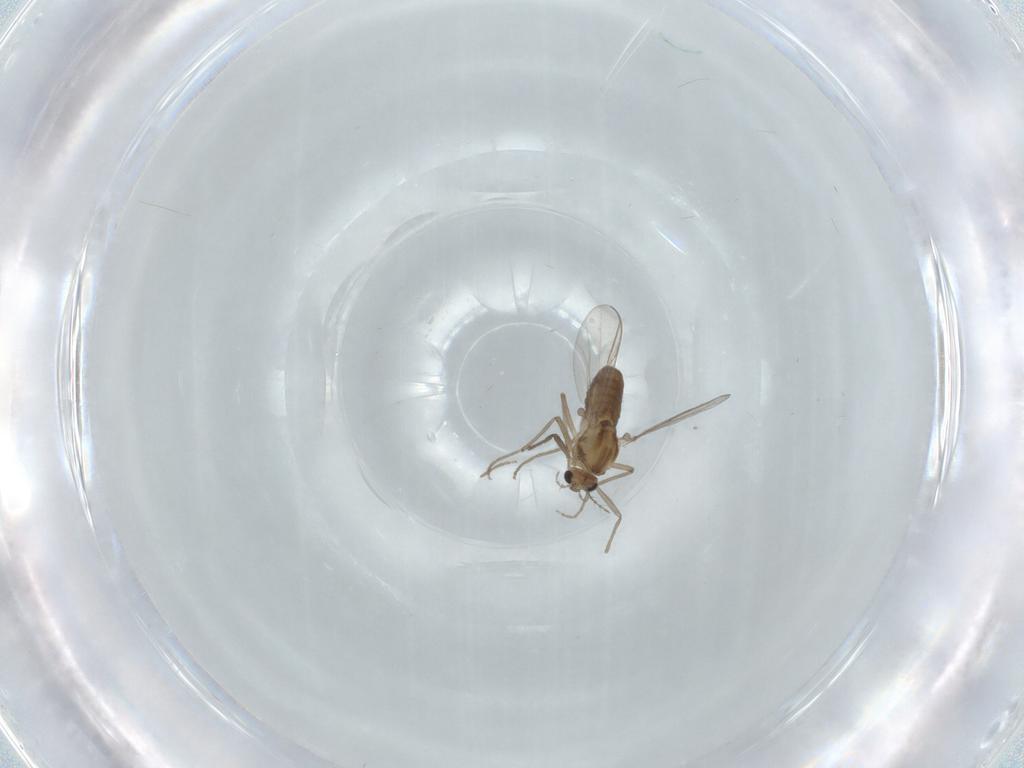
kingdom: Animalia
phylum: Arthropoda
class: Insecta
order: Diptera
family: Chironomidae
